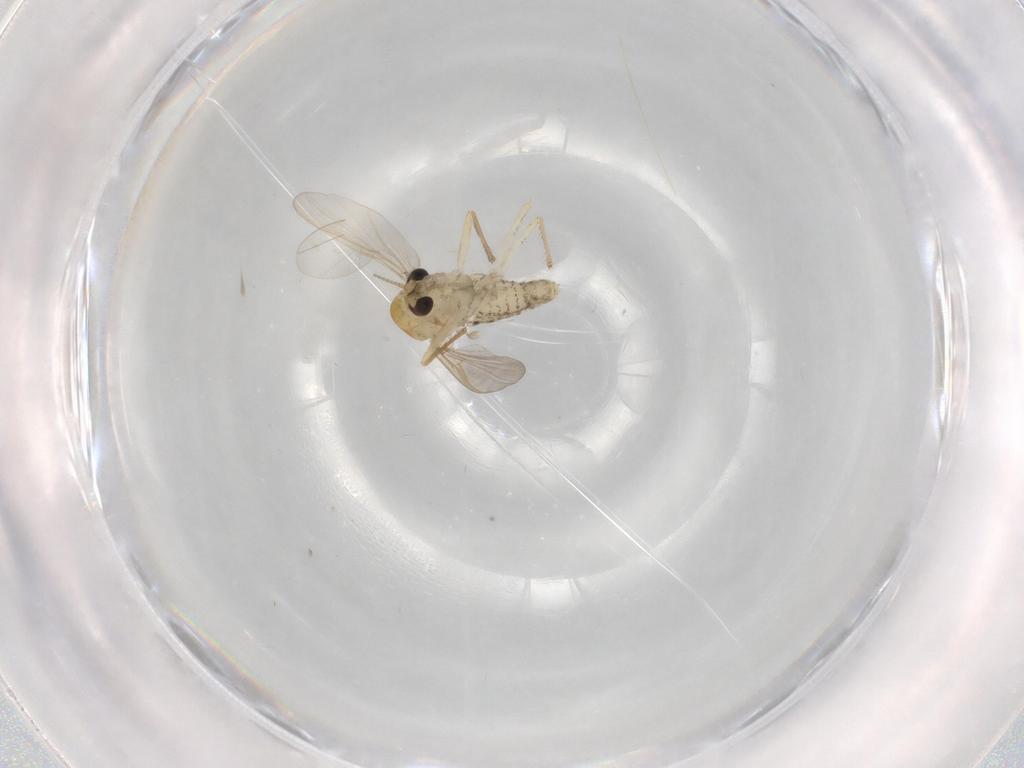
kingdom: Animalia
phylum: Arthropoda
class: Insecta
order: Diptera
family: Chironomidae
